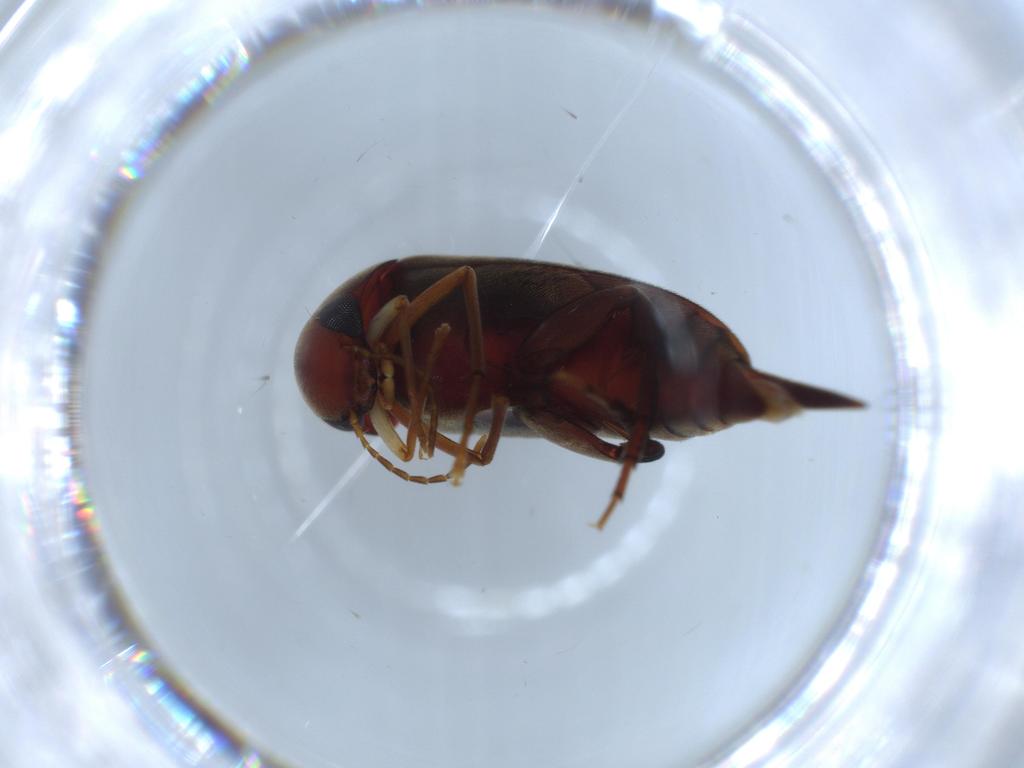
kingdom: Animalia
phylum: Arthropoda
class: Insecta
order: Coleoptera
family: Mordellidae
